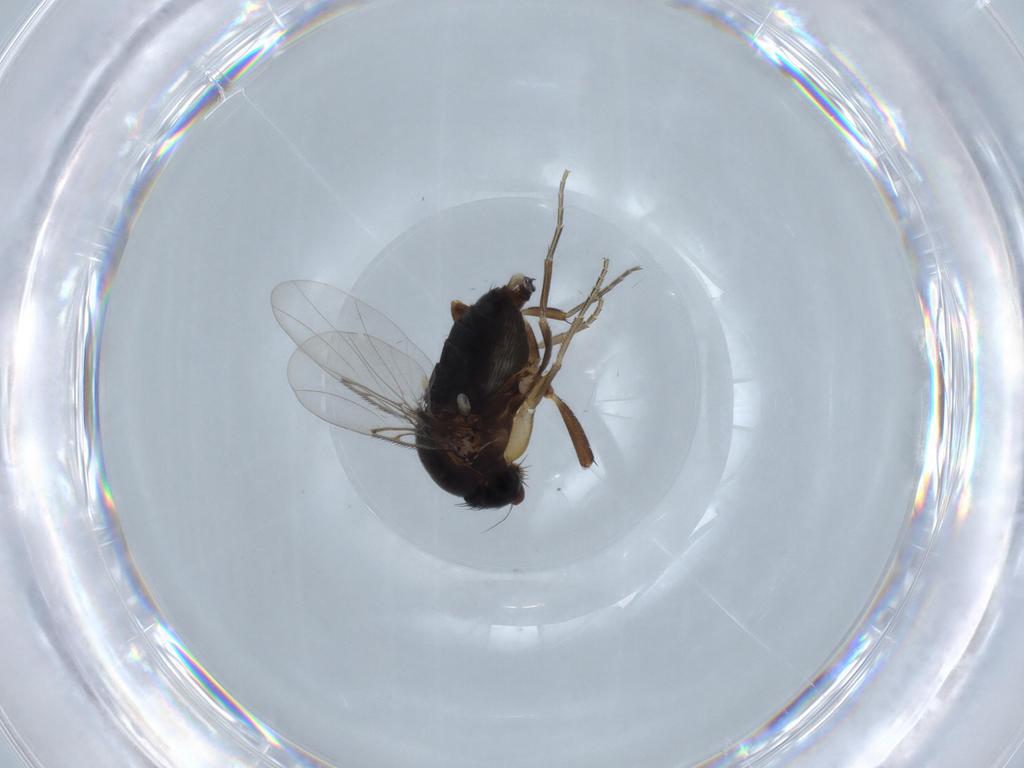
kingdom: Animalia
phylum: Arthropoda
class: Insecta
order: Diptera
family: Phoridae
